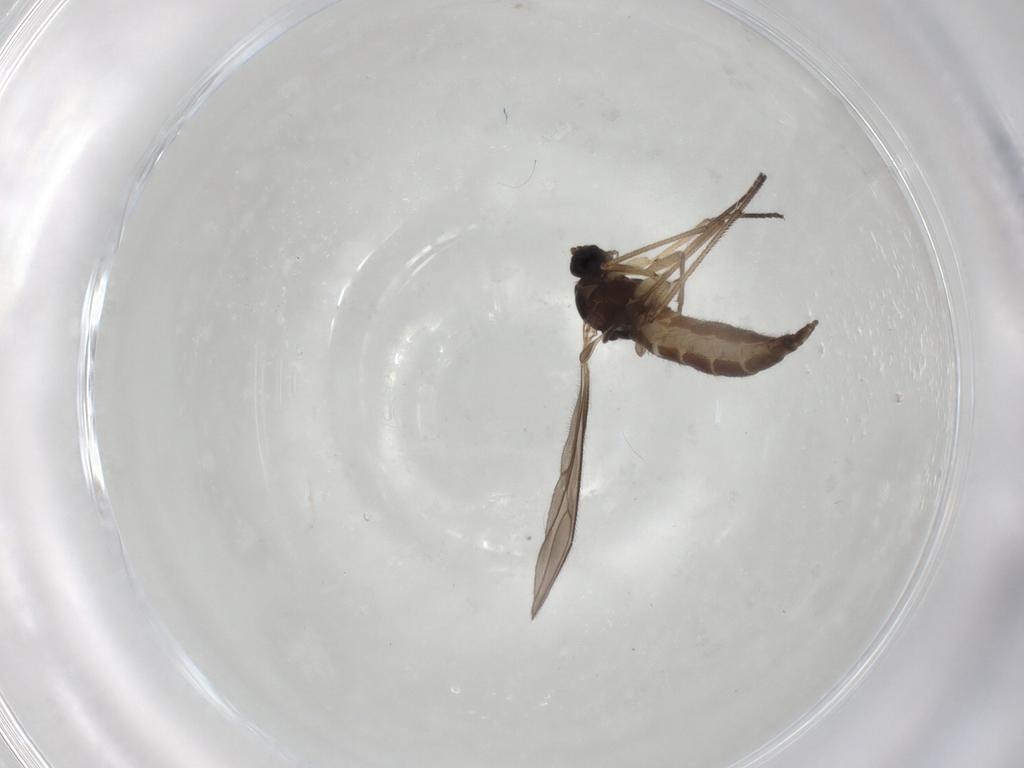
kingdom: Animalia
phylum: Arthropoda
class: Insecta
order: Diptera
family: Sciaridae
